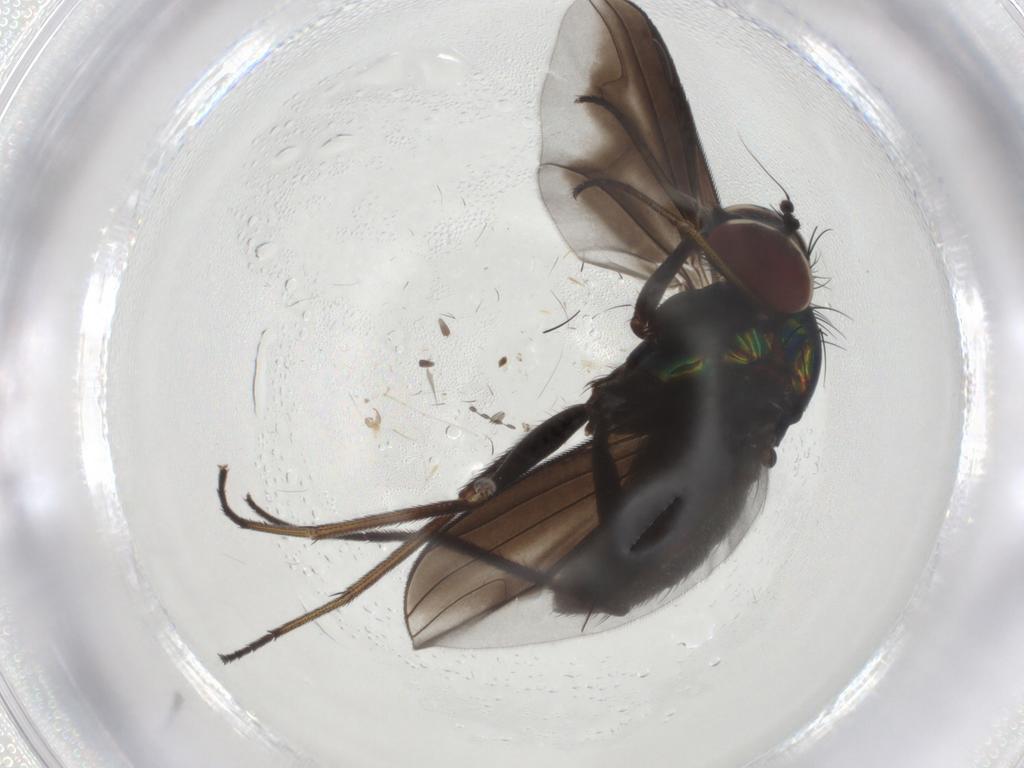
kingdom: Animalia
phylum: Arthropoda
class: Insecta
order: Diptera
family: Dolichopodidae
